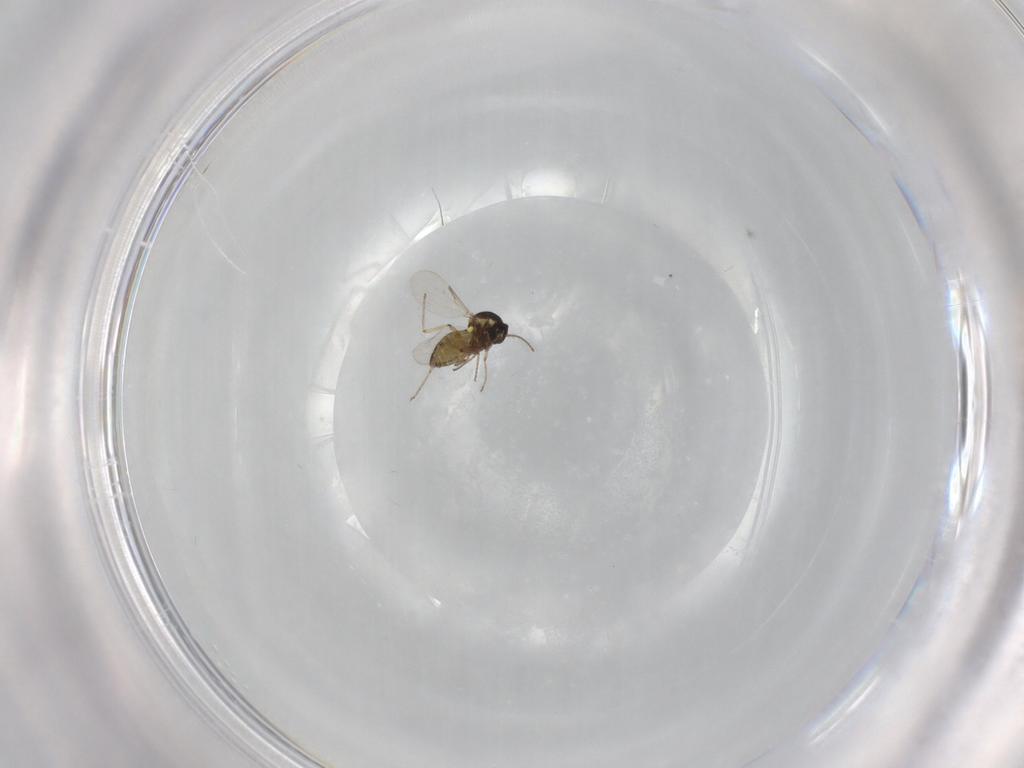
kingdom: Animalia
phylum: Arthropoda
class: Insecta
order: Diptera
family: Ceratopogonidae
